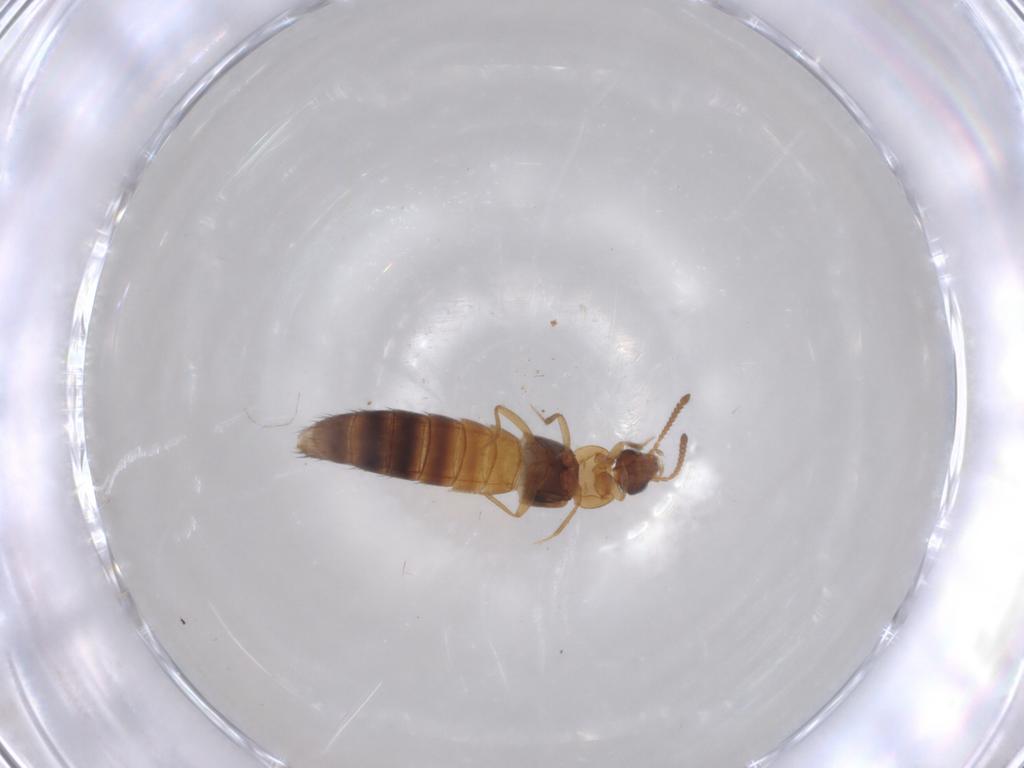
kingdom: Animalia
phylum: Arthropoda
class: Insecta
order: Coleoptera
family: Staphylinidae
